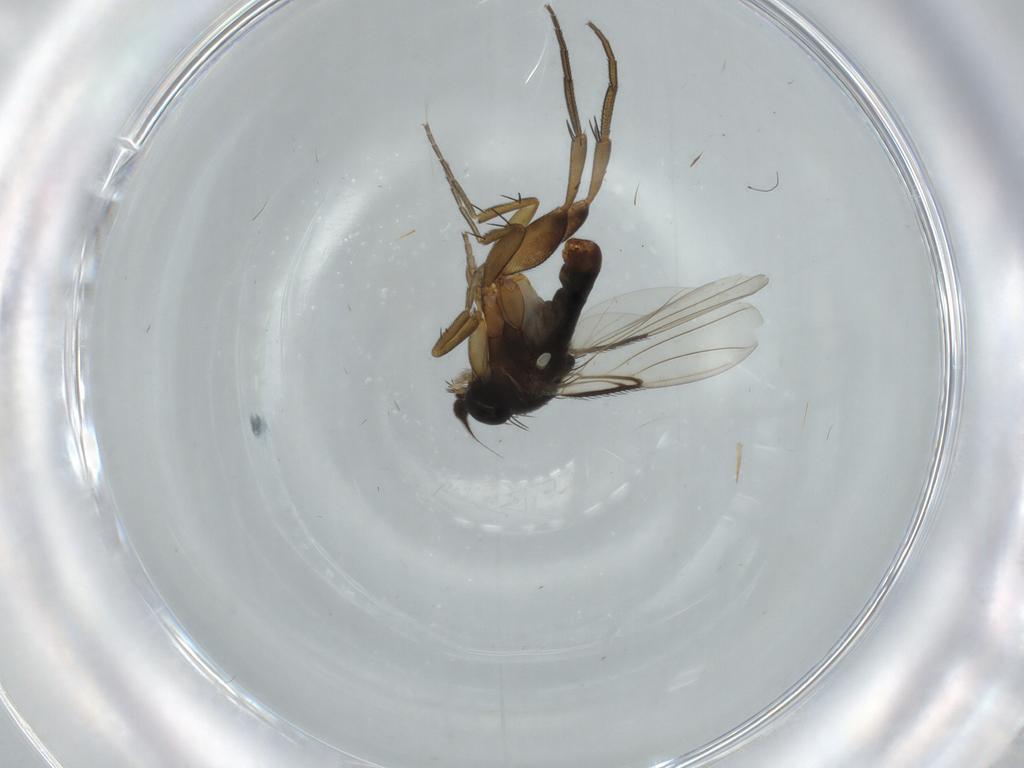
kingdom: Animalia
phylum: Arthropoda
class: Insecta
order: Diptera
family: Phoridae
